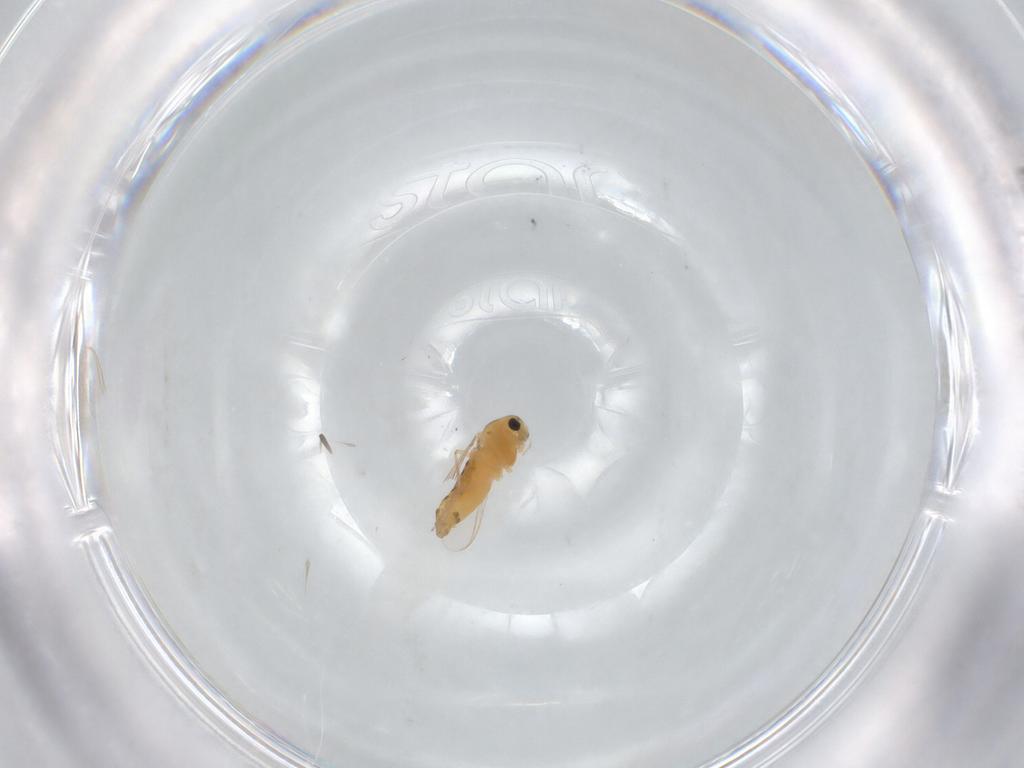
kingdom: Animalia
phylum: Arthropoda
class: Insecta
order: Diptera
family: Chironomidae
